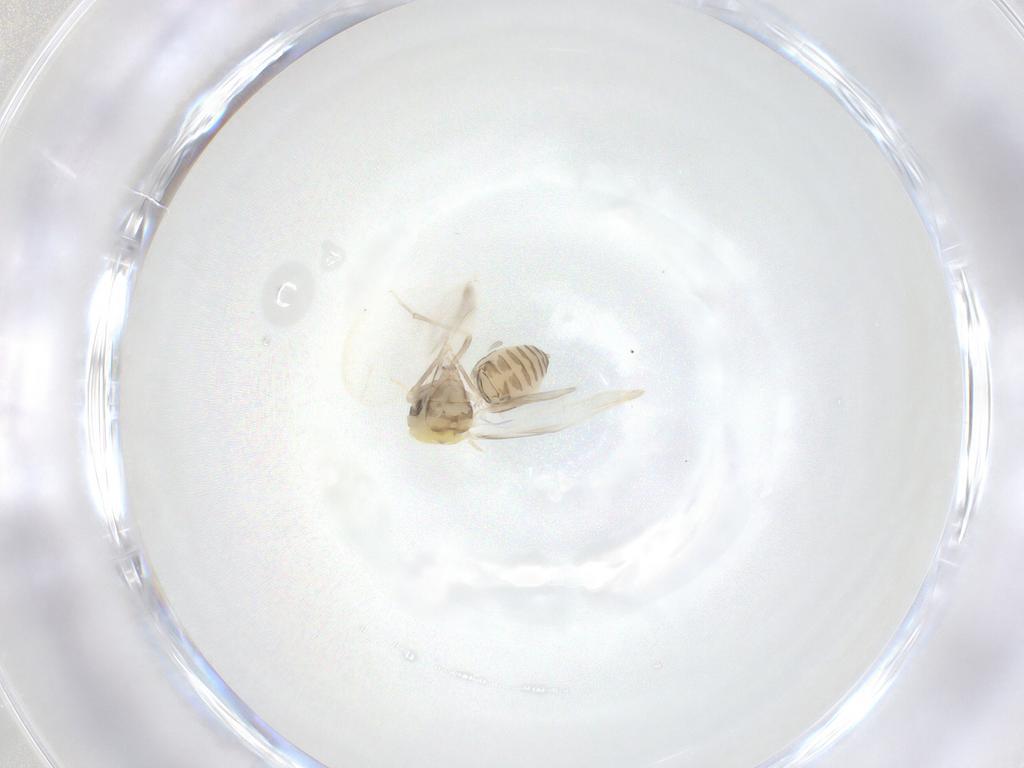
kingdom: Animalia
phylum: Arthropoda
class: Insecta
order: Hemiptera
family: Aleyrodidae
